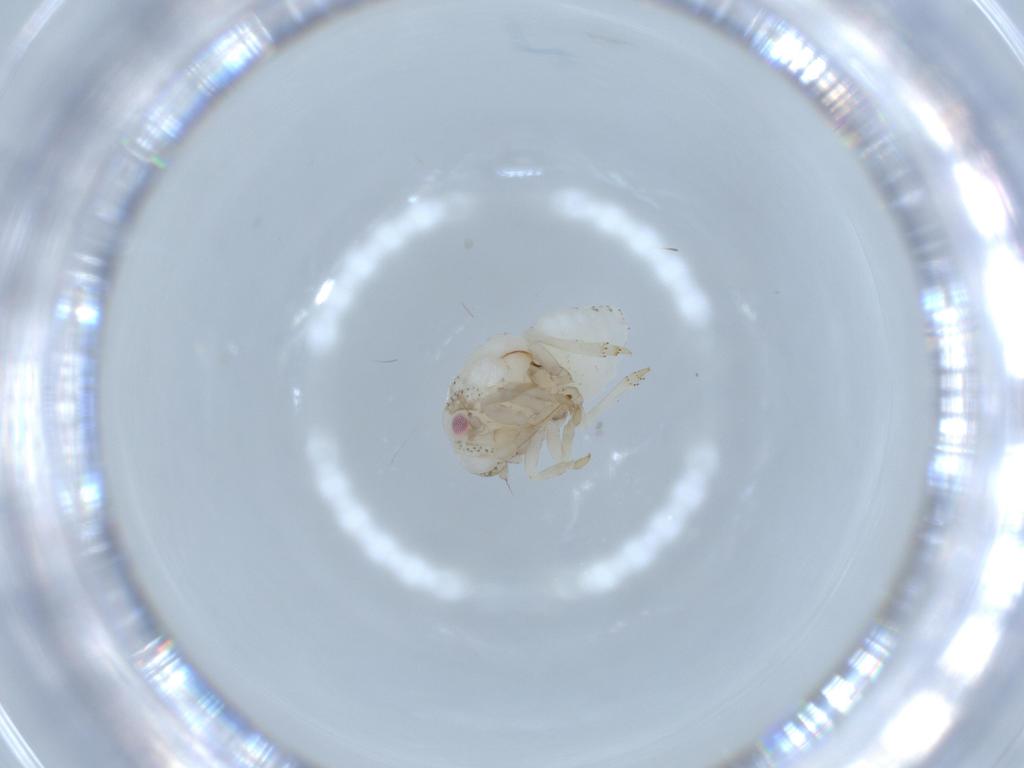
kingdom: Animalia
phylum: Arthropoda
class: Insecta
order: Hemiptera
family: Acanaloniidae
